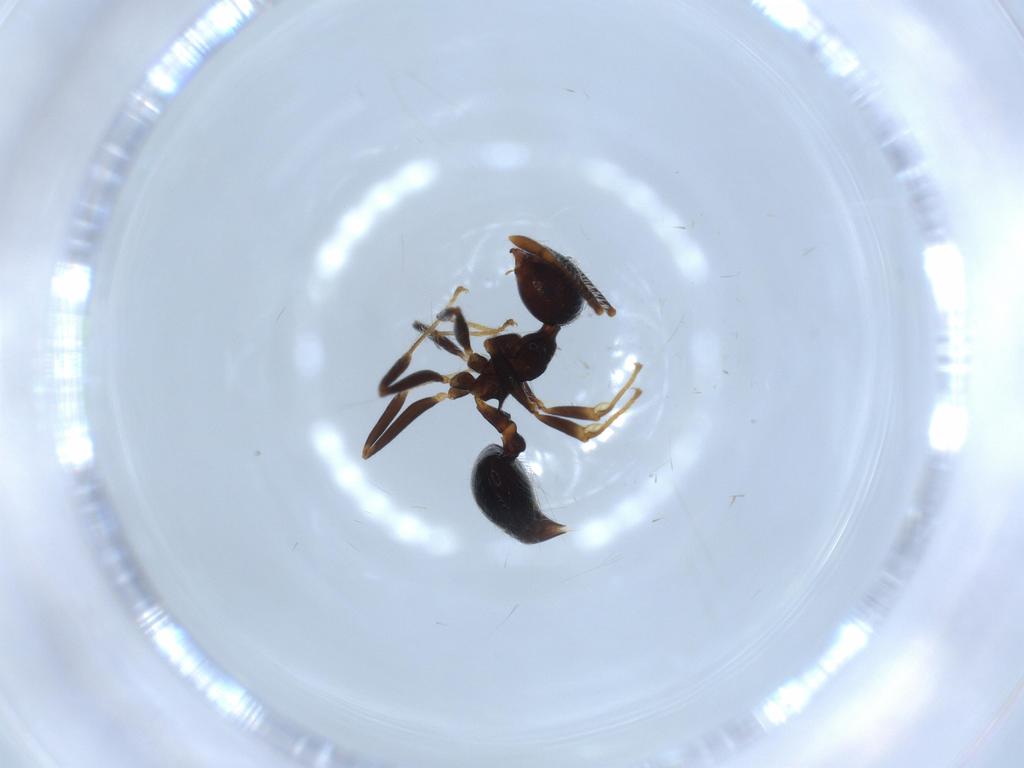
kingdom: Animalia
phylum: Arthropoda
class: Insecta
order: Hymenoptera
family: Formicidae
